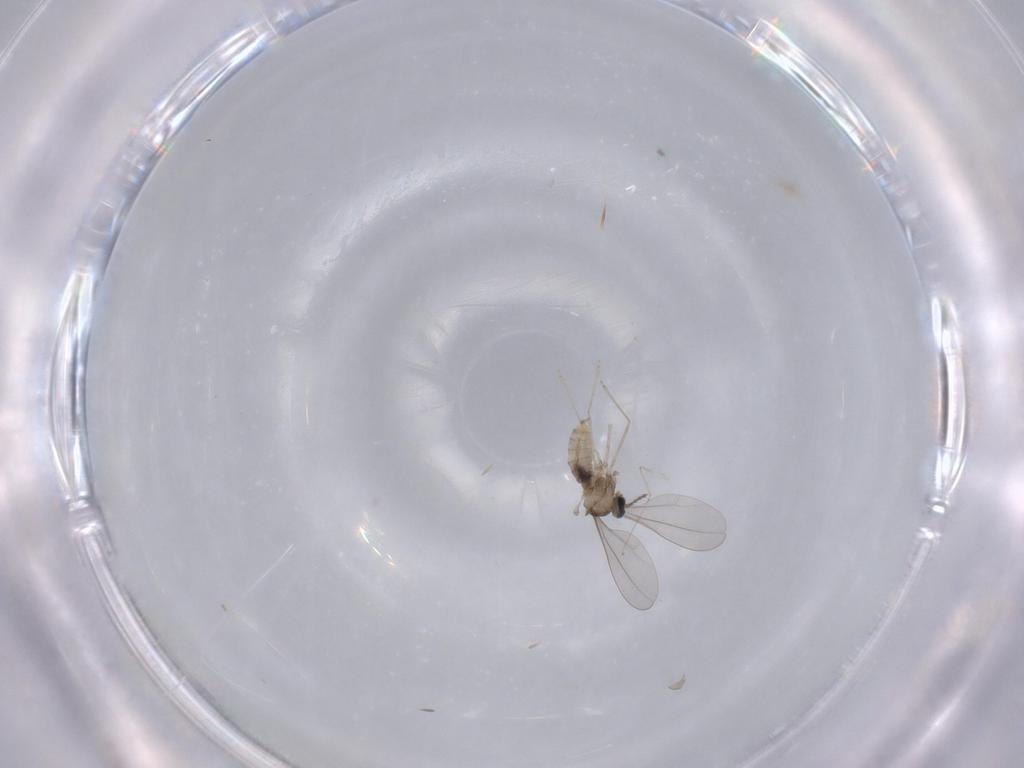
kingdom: Animalia
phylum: Arthropoda
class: Insecta
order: Diptera
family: Cecidomyiidae
